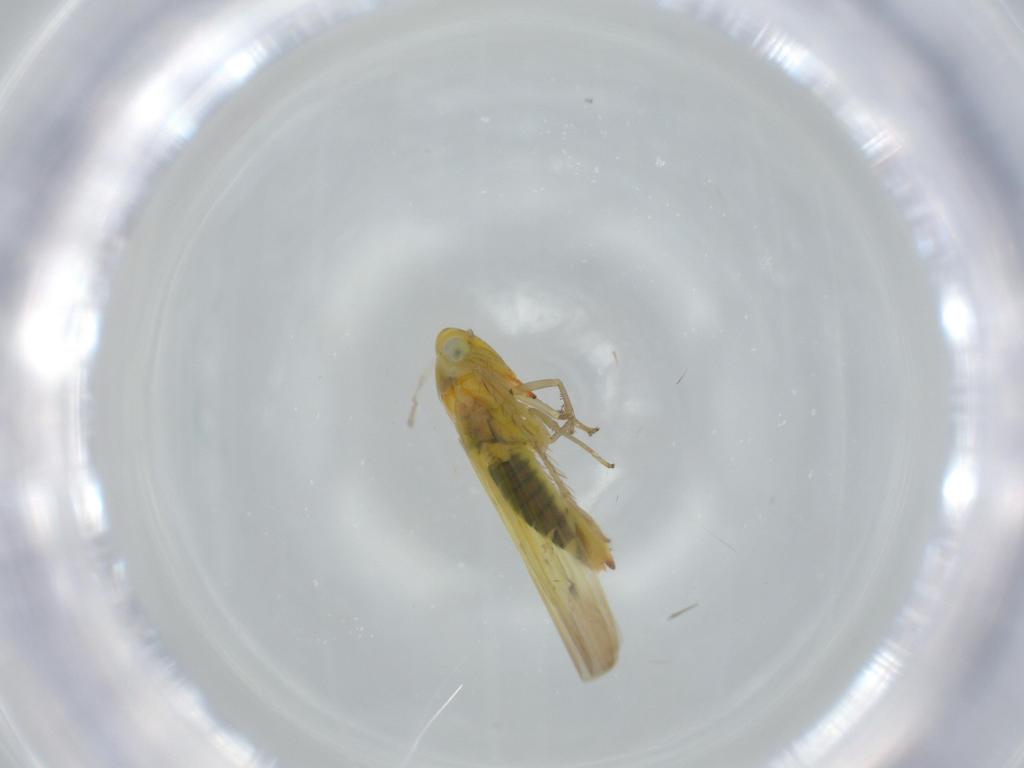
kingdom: Animalia
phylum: Arthropoda
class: Insecta
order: Hemiptera
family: Cicadellidae
